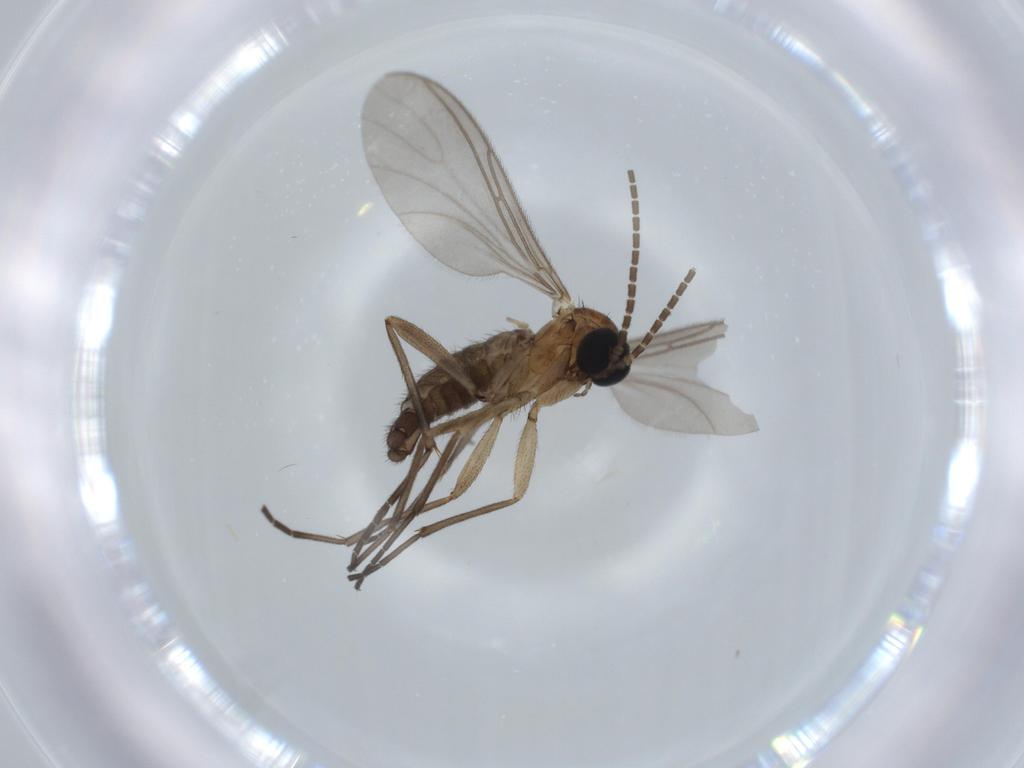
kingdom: Animalia
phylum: Arthropoda
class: Insecta
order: Diptera
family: Sciaridae
